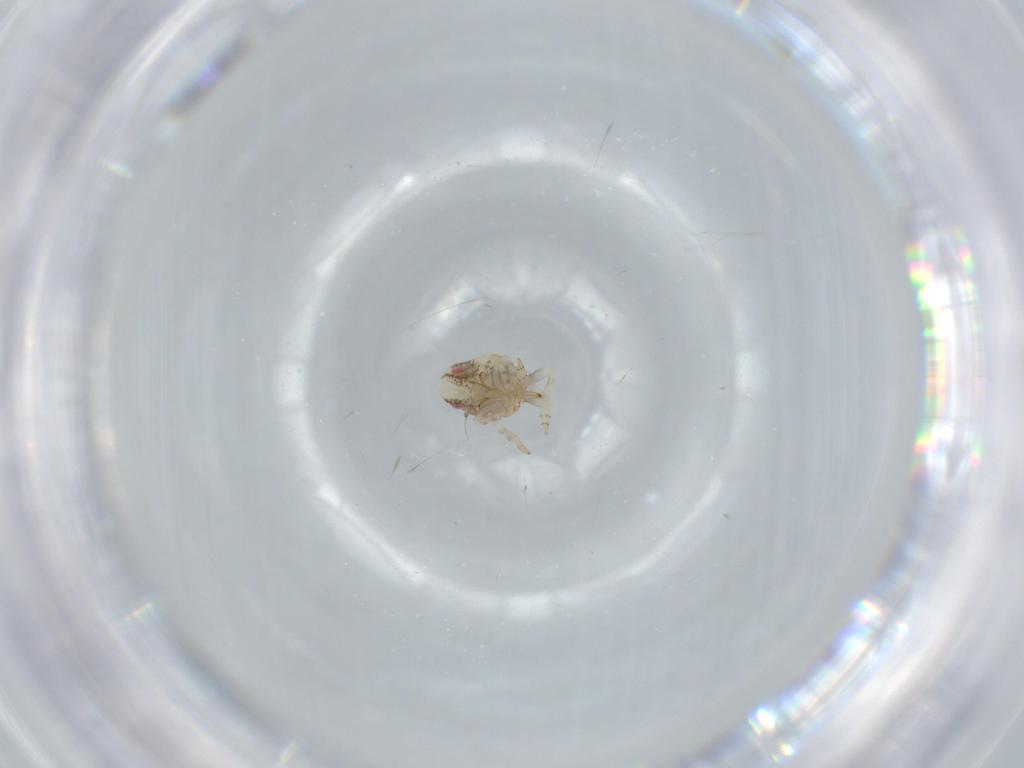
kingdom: Animalia
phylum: Arthropoda
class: Insecta
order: Hemiptera
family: Acanaloniidae
